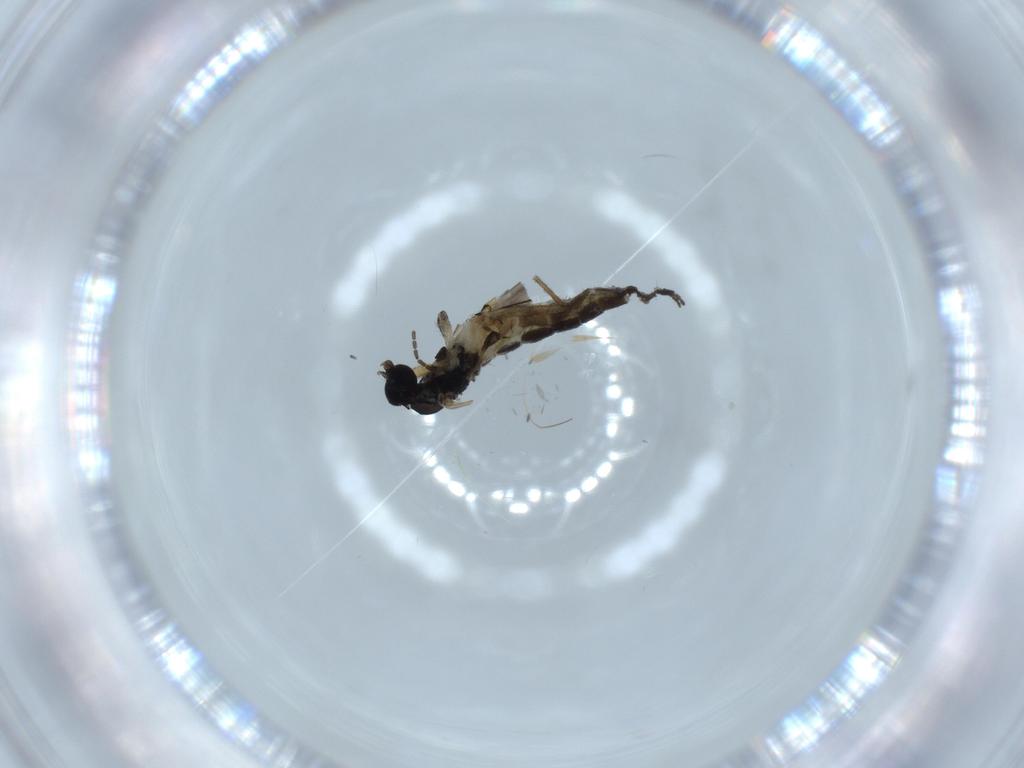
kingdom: Animalia
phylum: Arthropoda
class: Insecta
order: Diptera
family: Sciaridae
